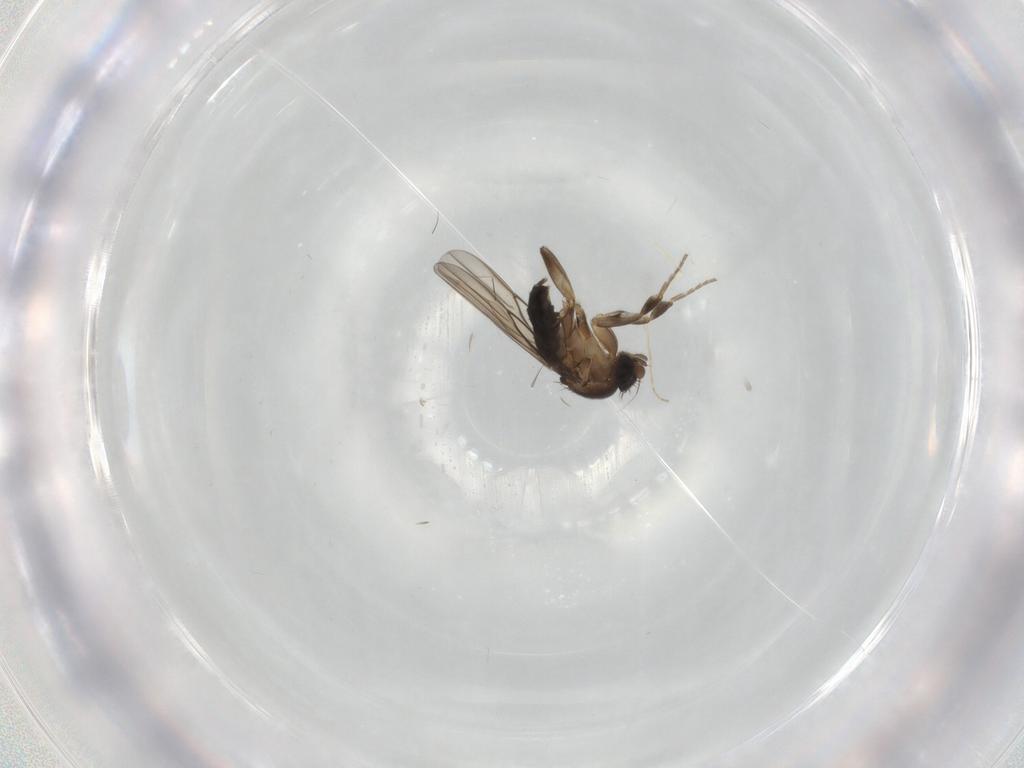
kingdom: Animalia
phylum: Arthropoda
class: Insecta
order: Diptera
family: Phoridae
